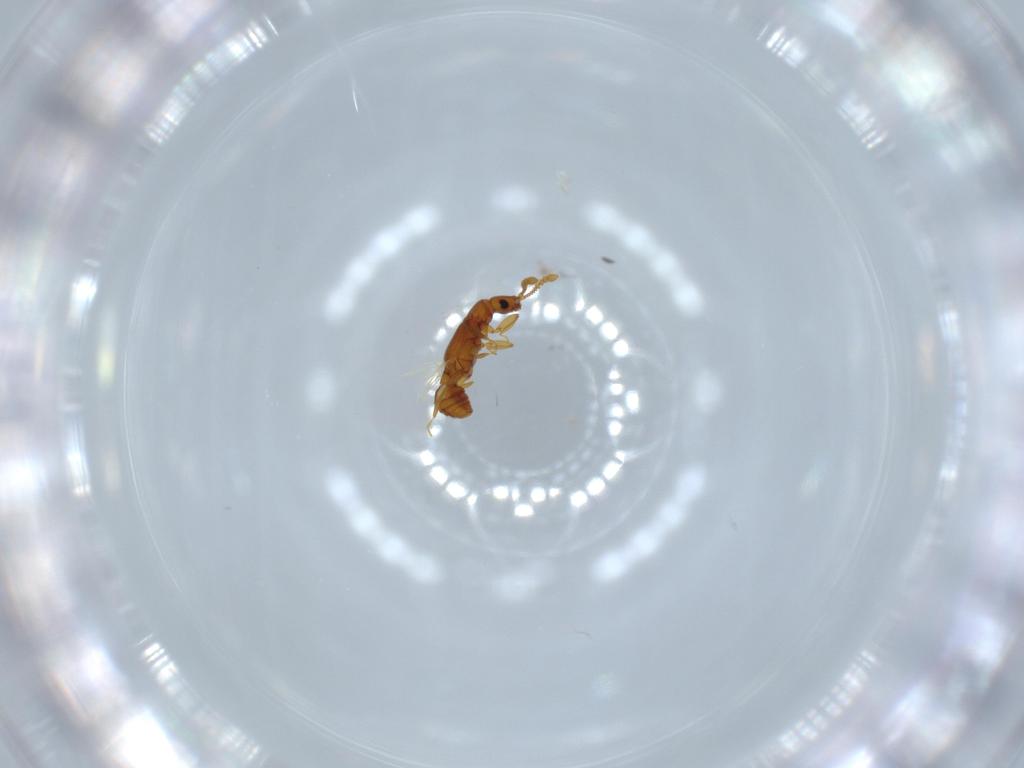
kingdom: Animalia
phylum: Arthropoda
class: Insecta
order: Coleoptera
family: Staphylinidae
